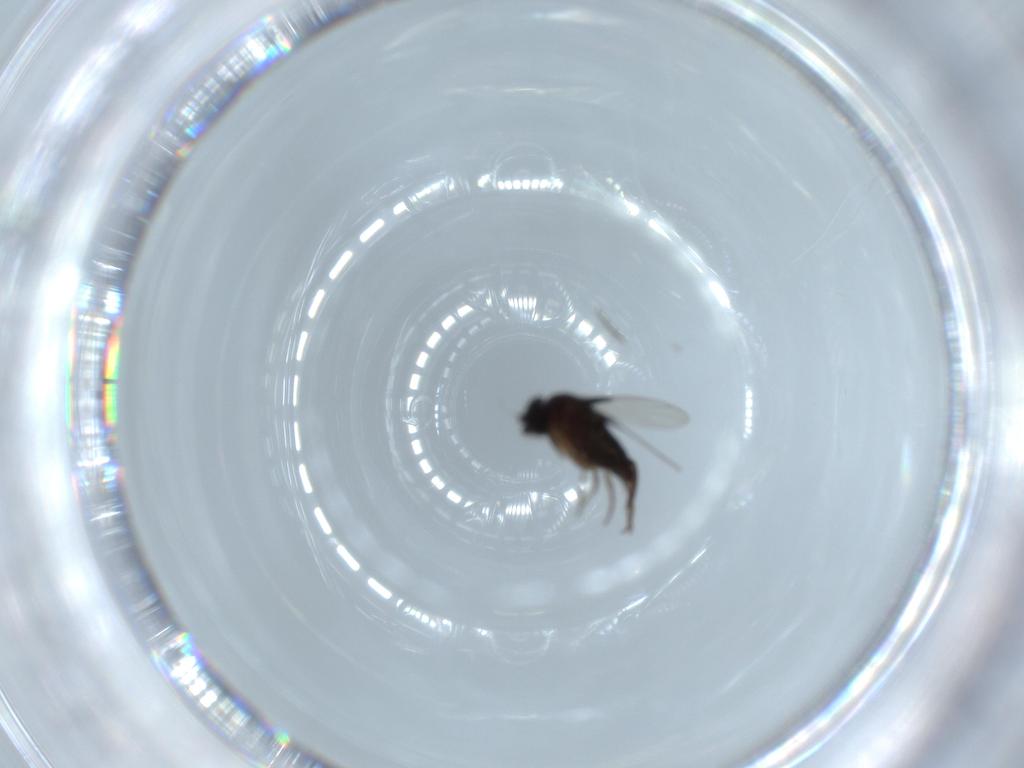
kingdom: Animalia
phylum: Arthropoda
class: Insecta
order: Diptera
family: Phoridae
